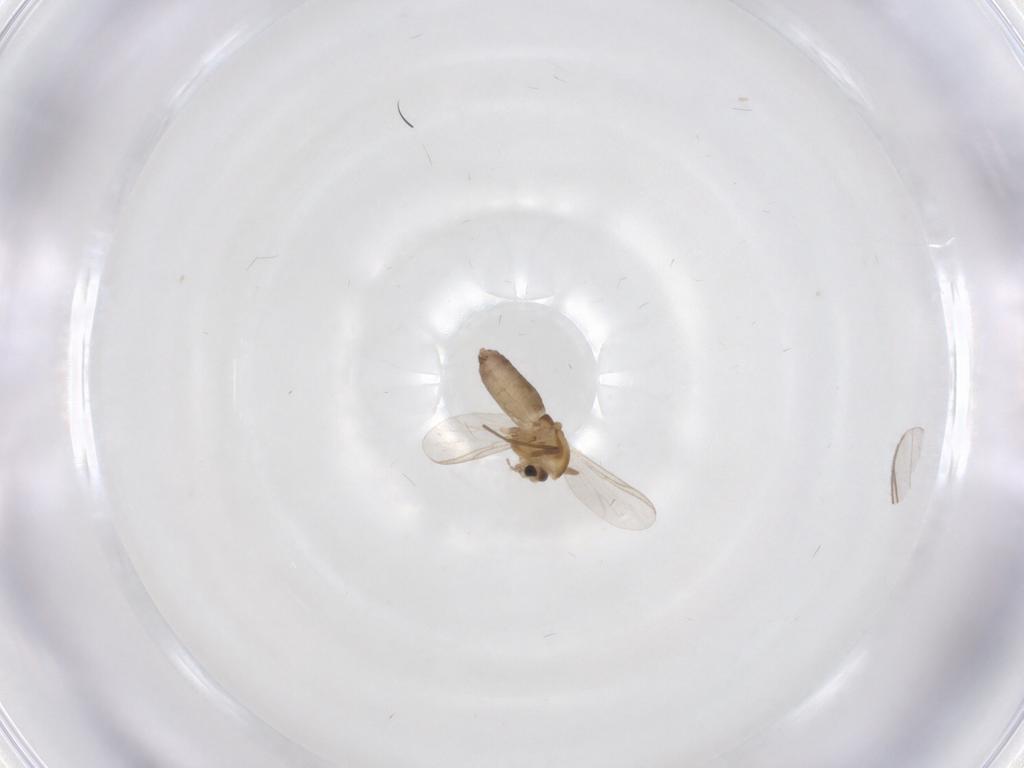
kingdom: Animalia
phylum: Arthropoda
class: Insecta
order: Diptera
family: Chironomidae
